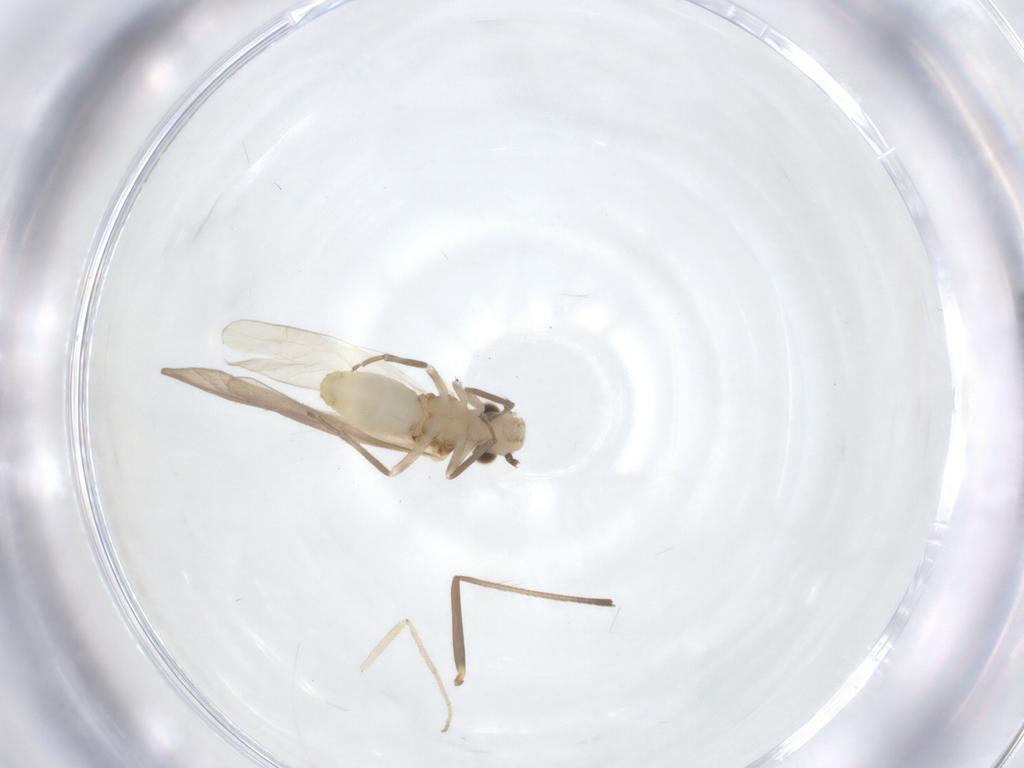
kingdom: Animalia
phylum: Arthropoda
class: Insecta
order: Psocodea
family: Caeciliusidae
